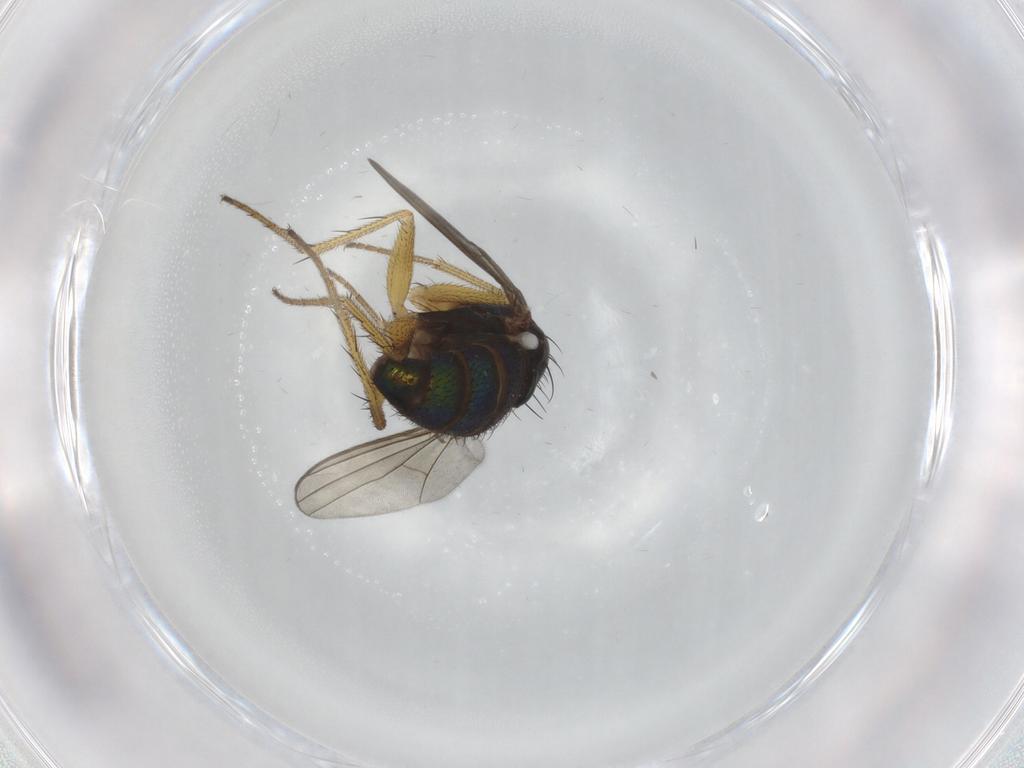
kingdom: Animalia
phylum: Arthropoda
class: Insecta
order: Diptera
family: Dolichopodidae
